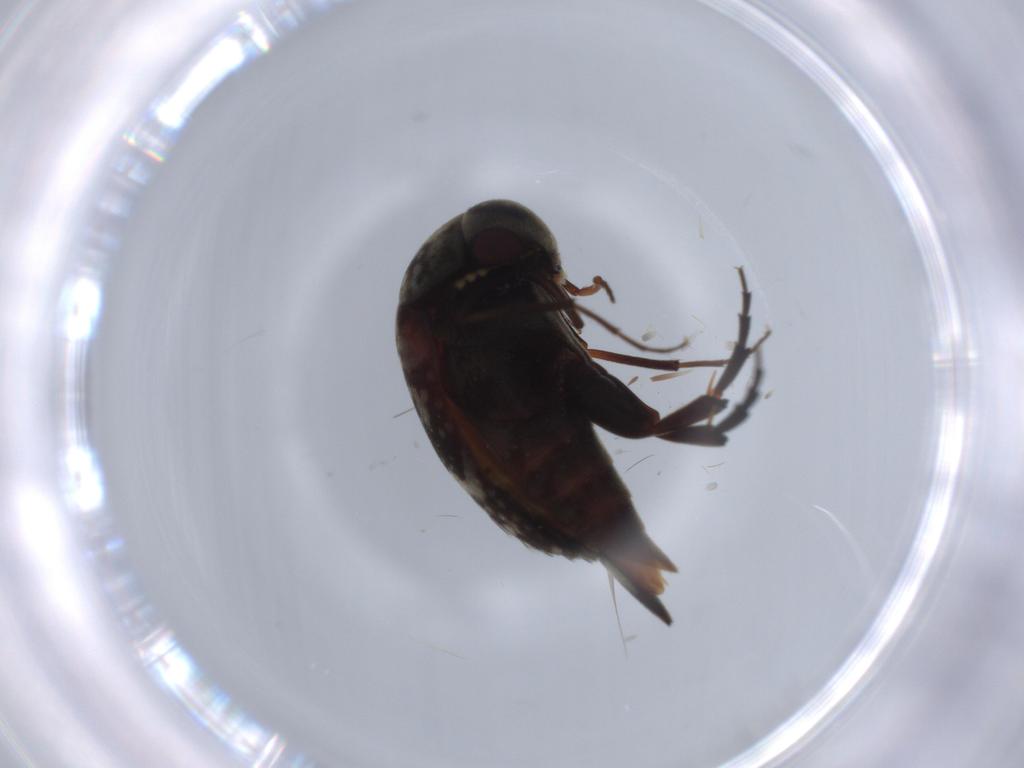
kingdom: Animalia
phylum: Arthropoda
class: Insecta
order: Coleoptera
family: Phengodidae
